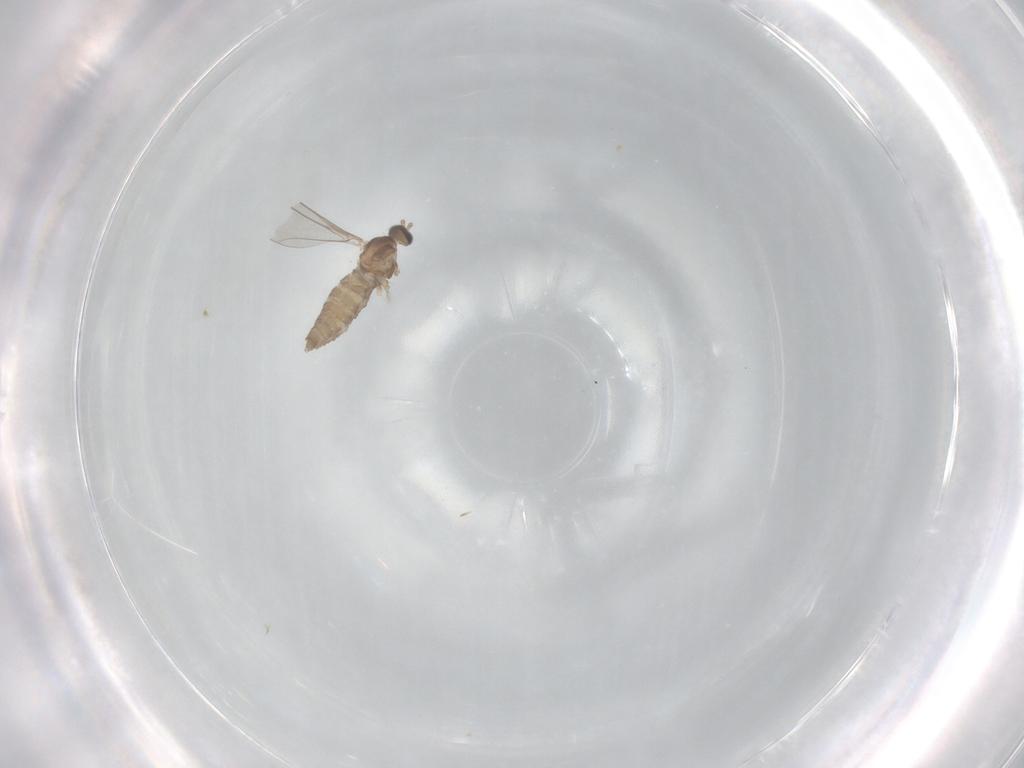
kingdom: Animalia
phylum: Arthropoda
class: Insecta
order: Diptera
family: Cecidomyiidae
